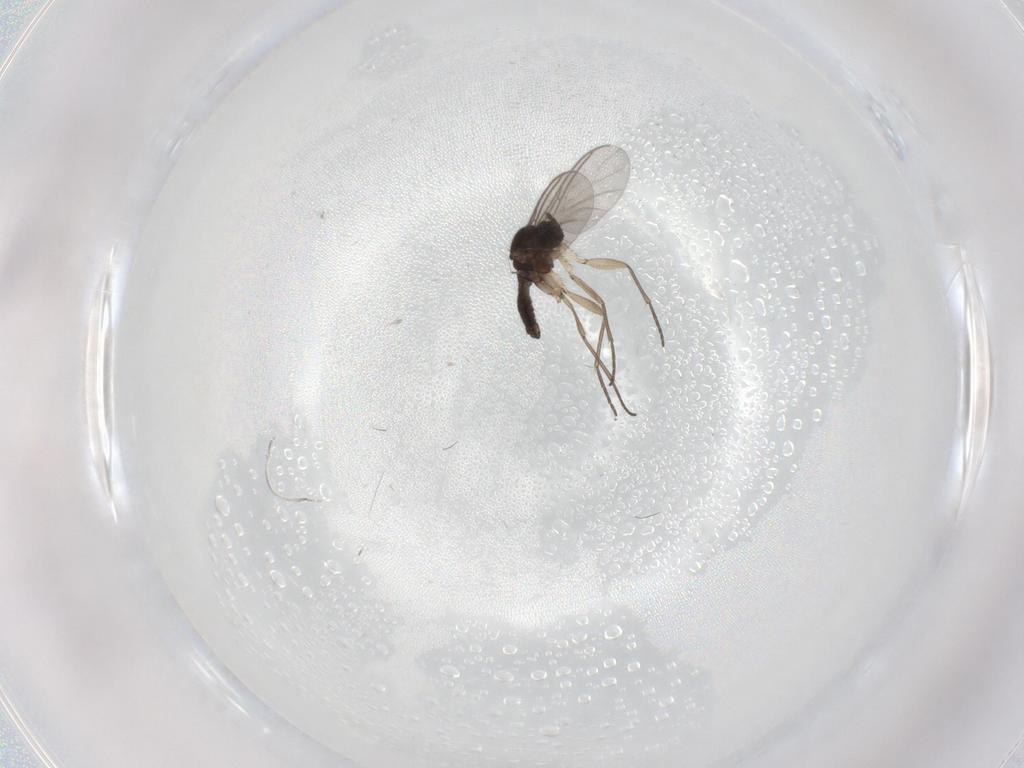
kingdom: Animalia
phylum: Arthropoda
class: Insecta
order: Diptera
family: Sciaridae
